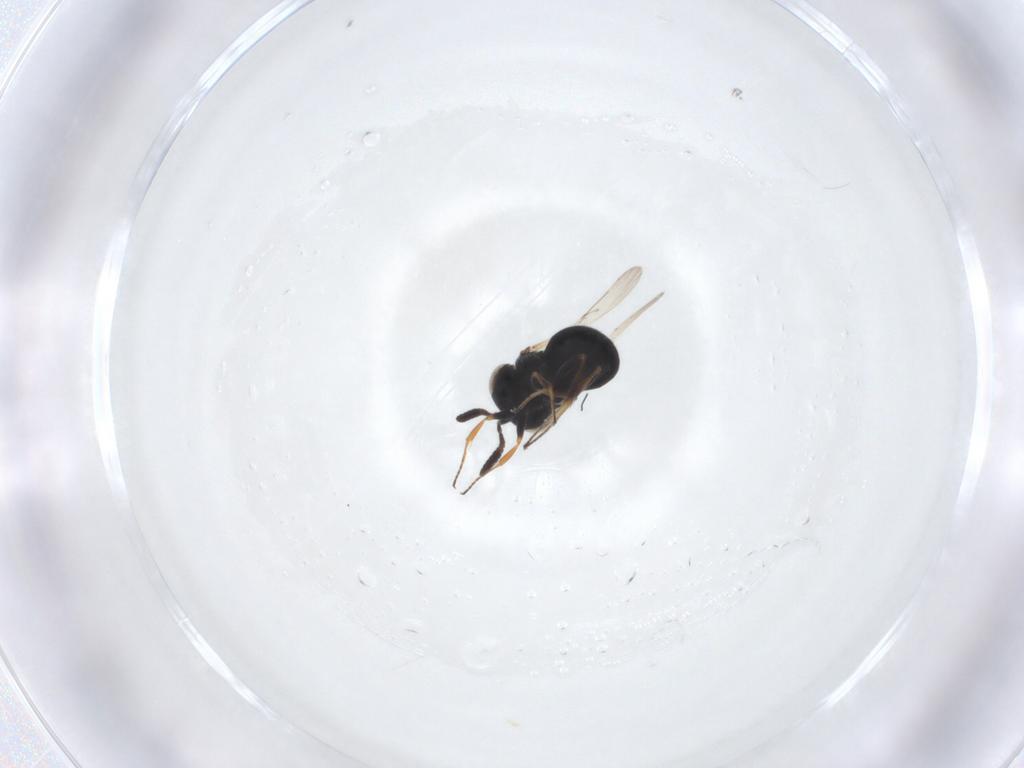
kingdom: Animalia
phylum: Arthropoda
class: Insecta
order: Hymenoptera
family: Scelionidae
